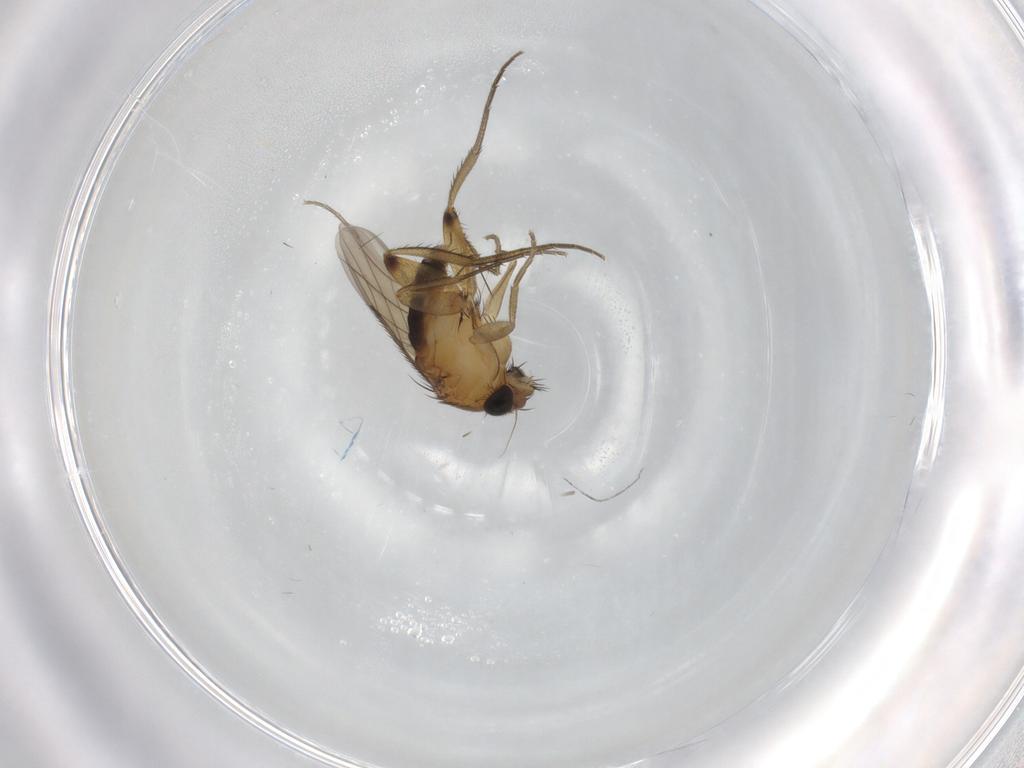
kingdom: Animalia
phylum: Arthropoda
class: Insecta
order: Diptera
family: Phoridae
